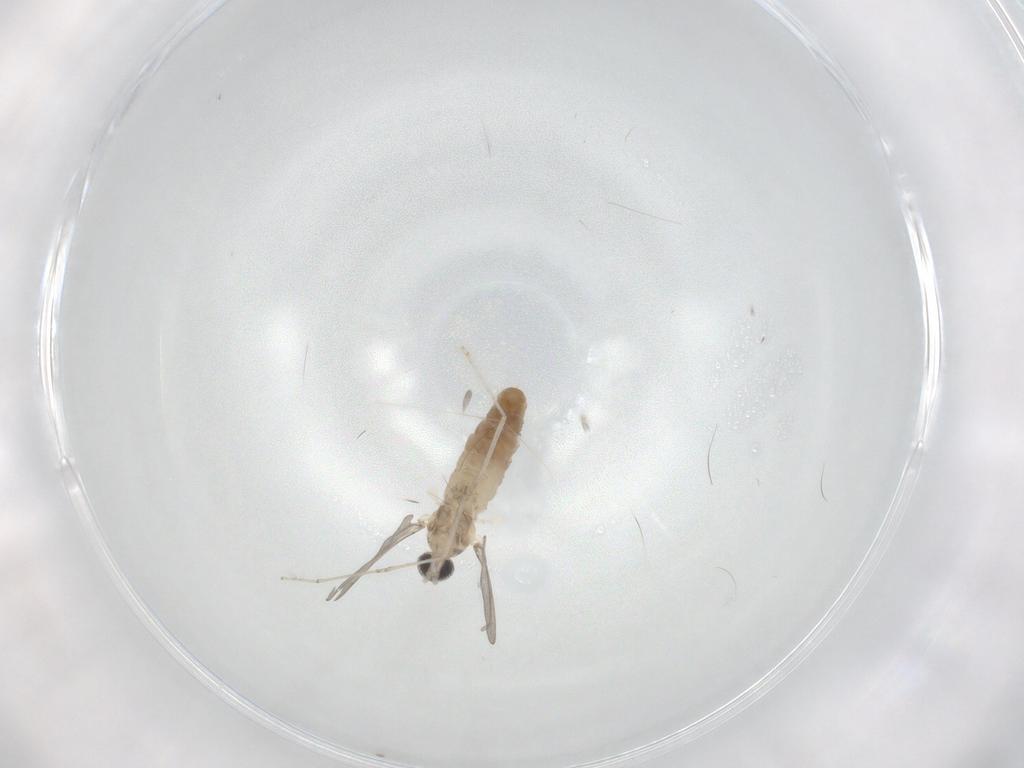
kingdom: Animalia
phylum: Arthropoda
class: Insecta
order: Diptera
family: Cecidomyiidae
